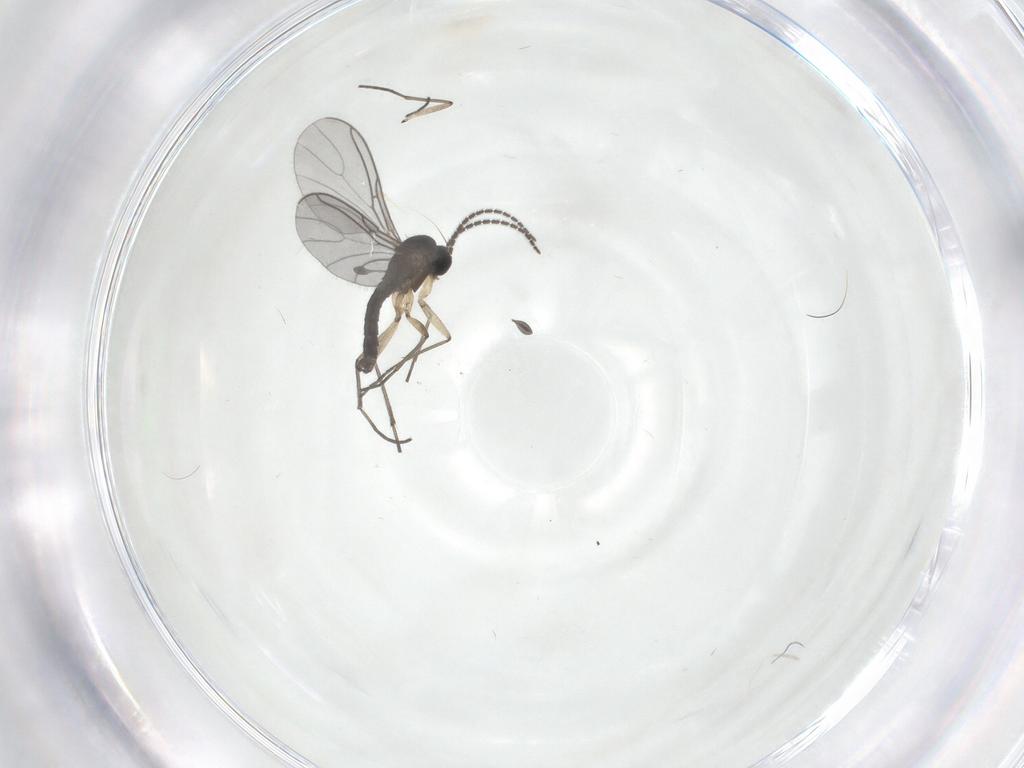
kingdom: Animalia
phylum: Arthropoda
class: Insecta
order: Diptera
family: Sciaridae
